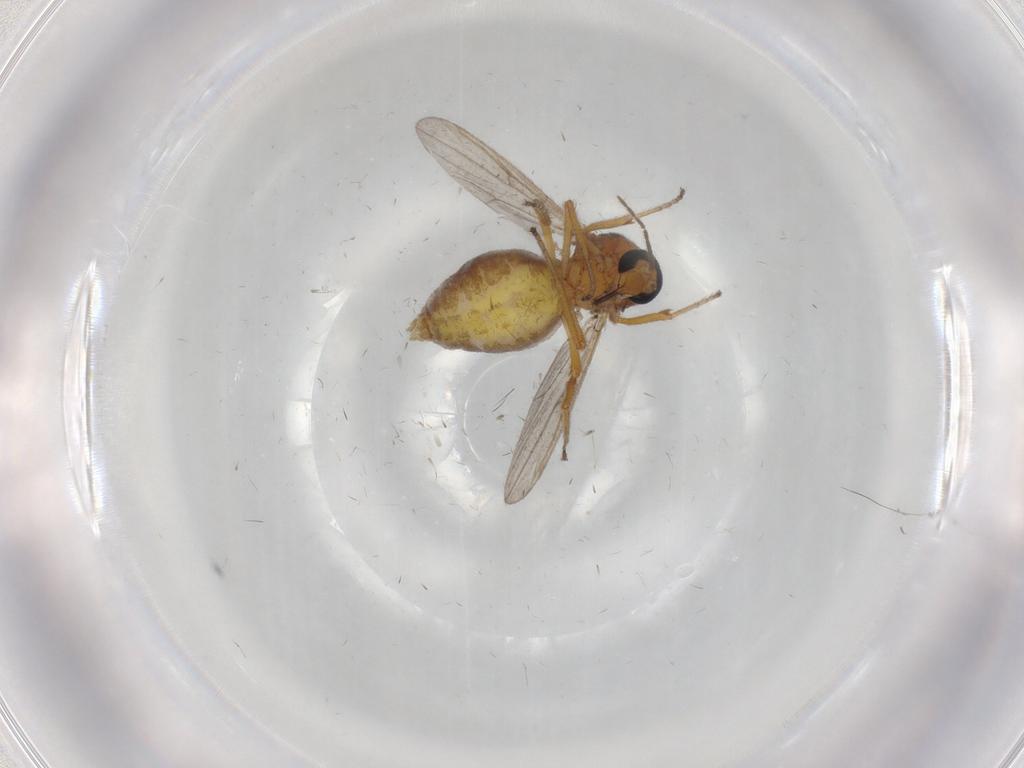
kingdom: Animalia
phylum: Arthropoda
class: Insecta
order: Diptera
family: Ceratopogonidae
